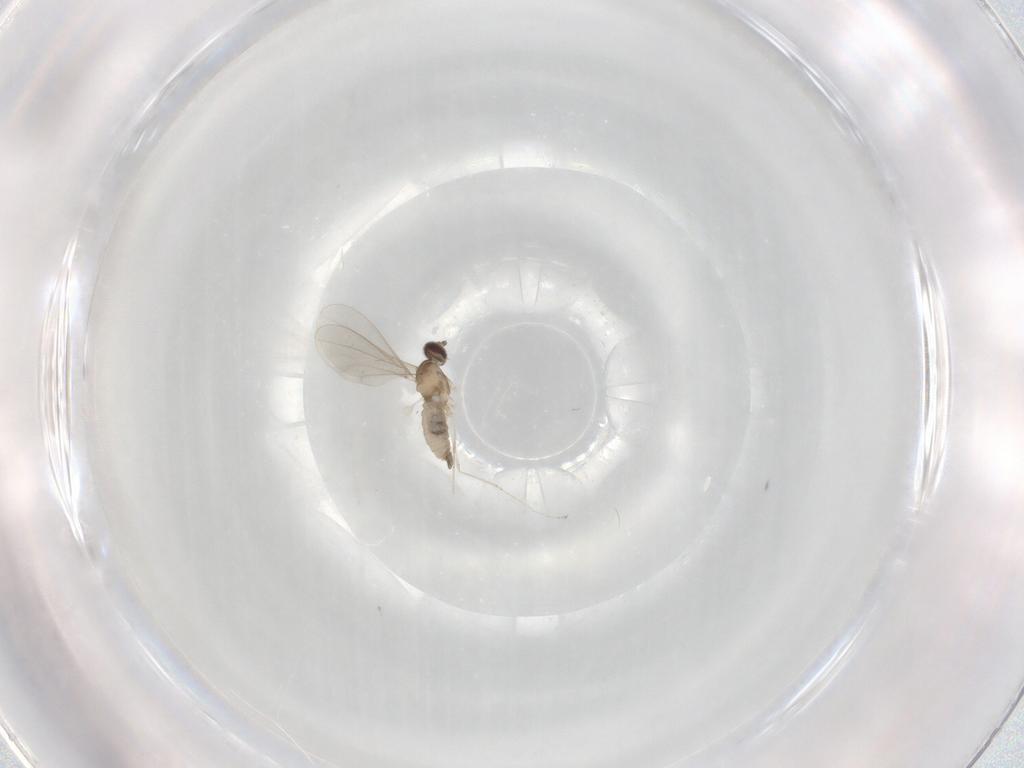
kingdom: Animalia
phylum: Arthropoda
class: Insecta
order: Diptera
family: Cecidomyiidae
